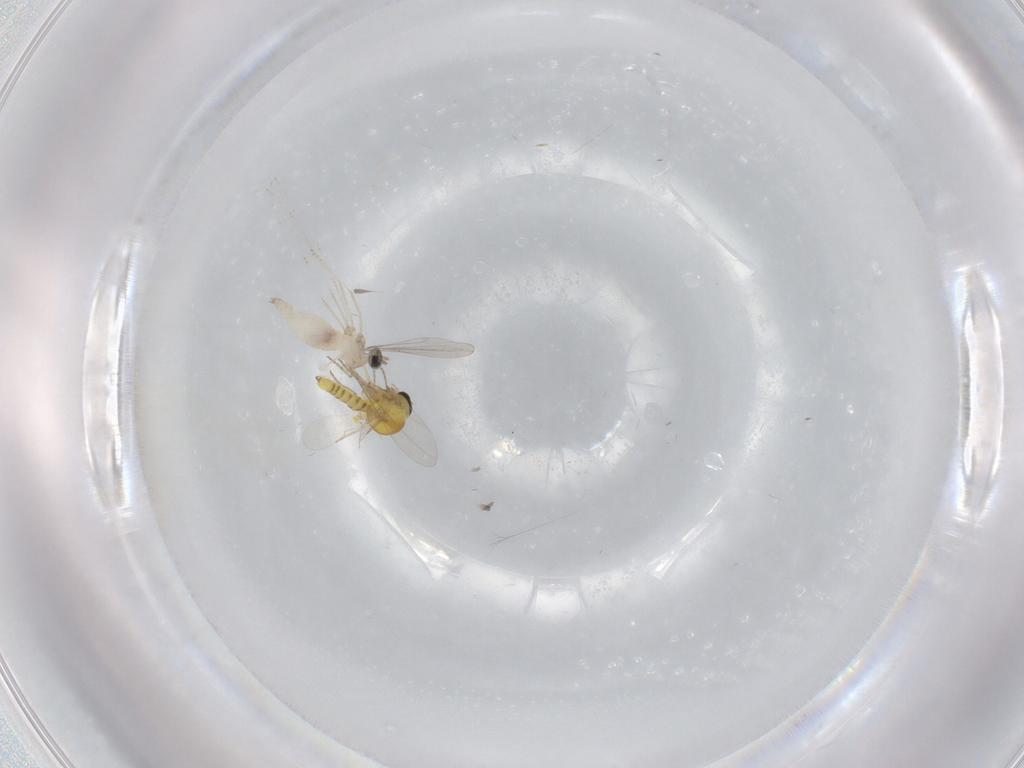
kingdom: Animalia
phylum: Arthropoda
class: Insecta
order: Diptera
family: Ceratopogonidae
